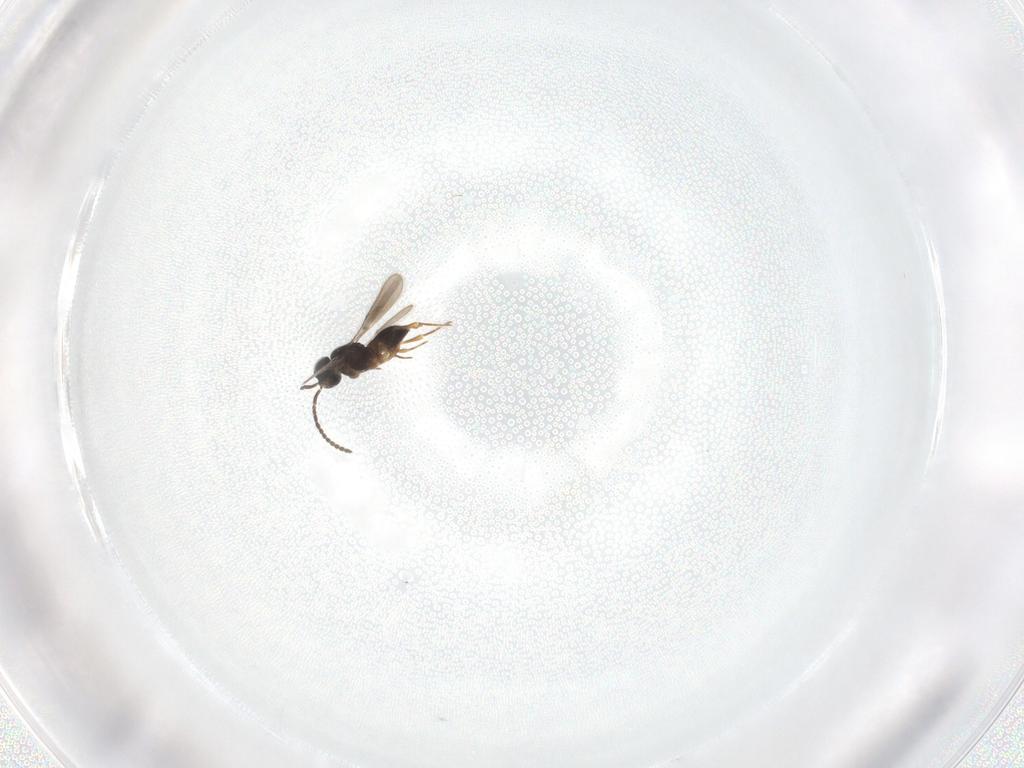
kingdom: Animalia
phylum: Arthropoda
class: Insecta
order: Hymenoptera
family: Scelionidae
